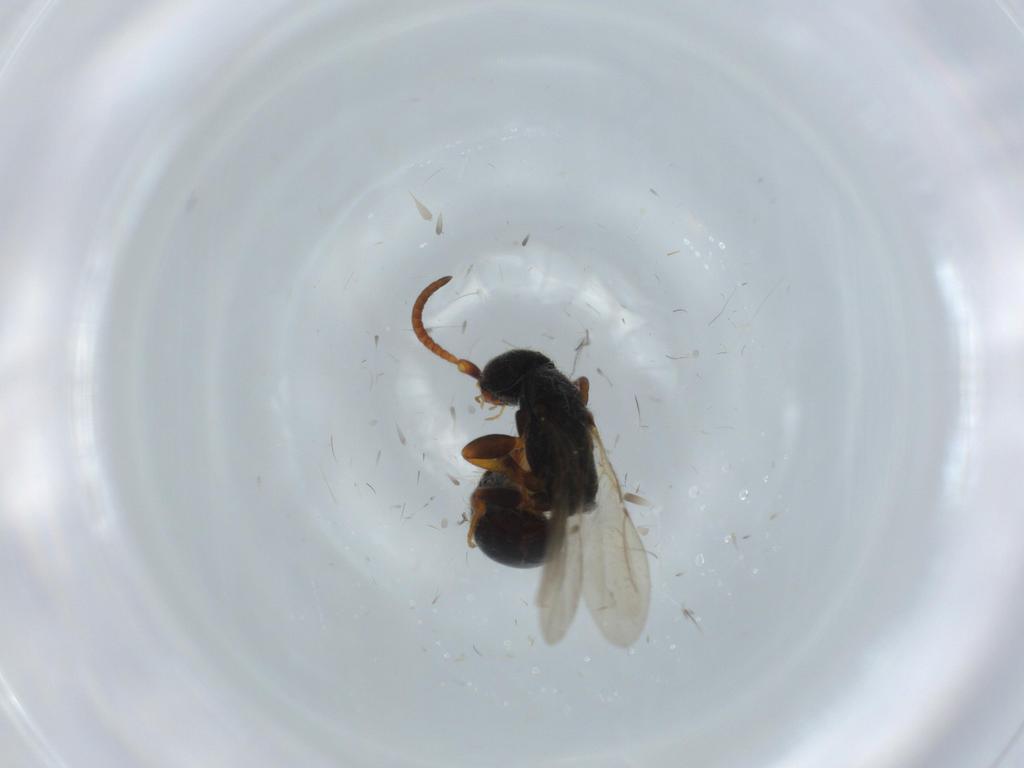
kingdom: Animalia
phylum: Arthropoda
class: Insecta
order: Hymenoptera
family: Bethylidae
